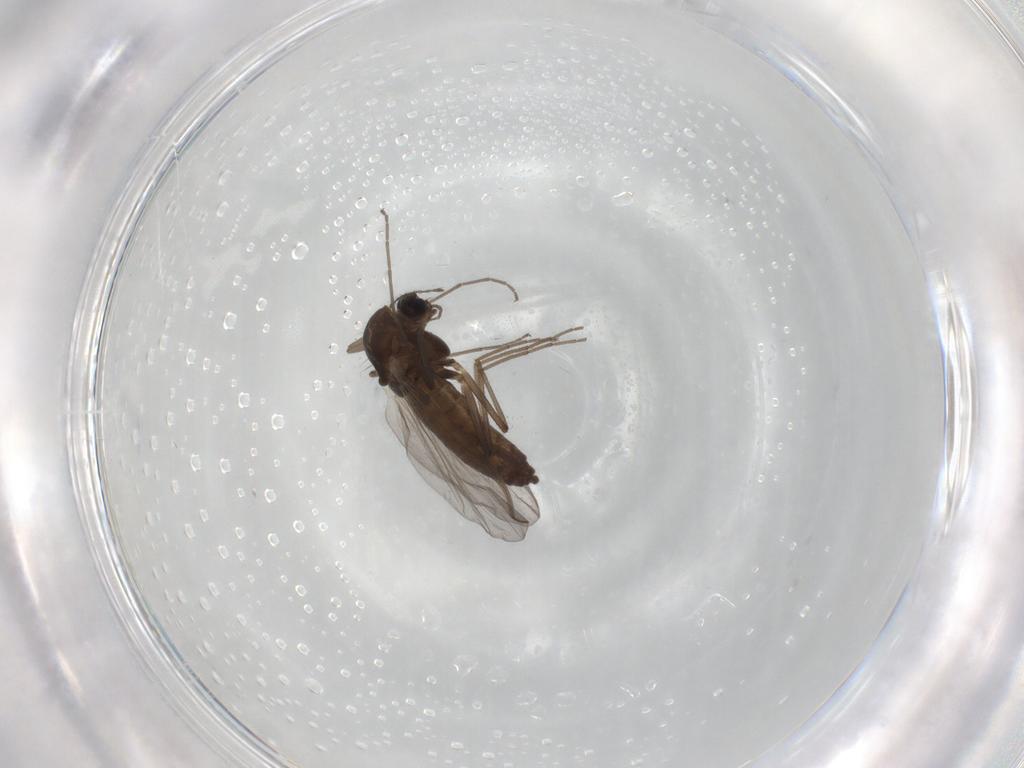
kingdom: Animalia
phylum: Arthropoda
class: Insecta
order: Diptera
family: Chironomidae
